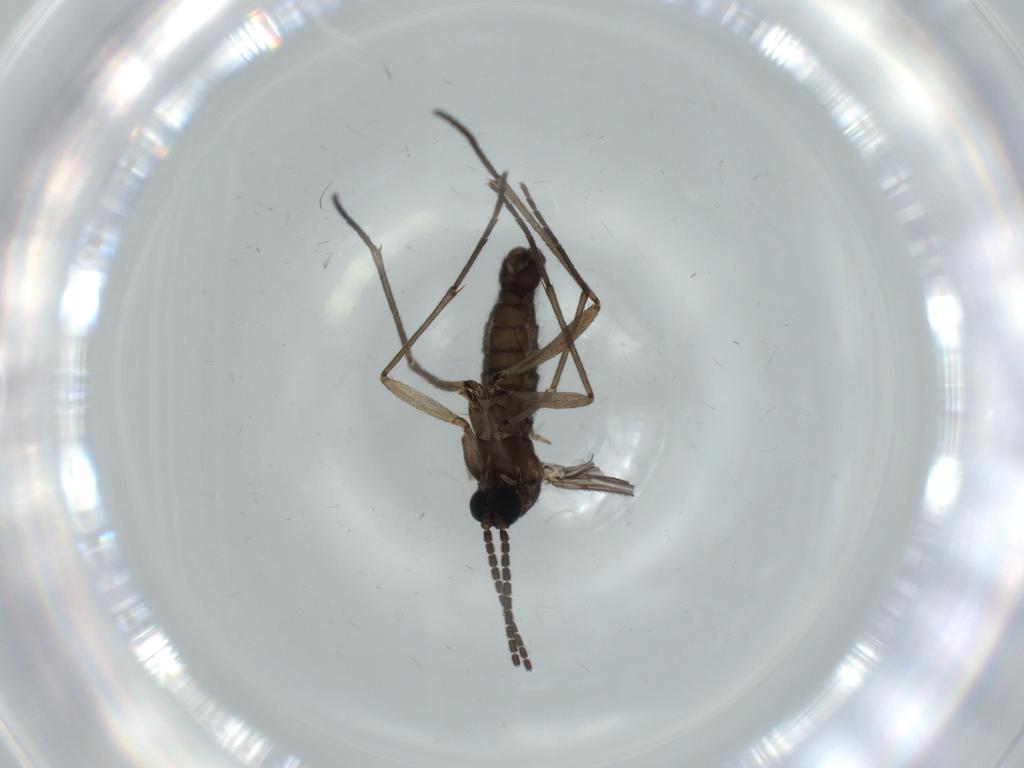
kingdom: Animalia
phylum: Arthropoda
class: Insecta
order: Diptera
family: Sciaridae
